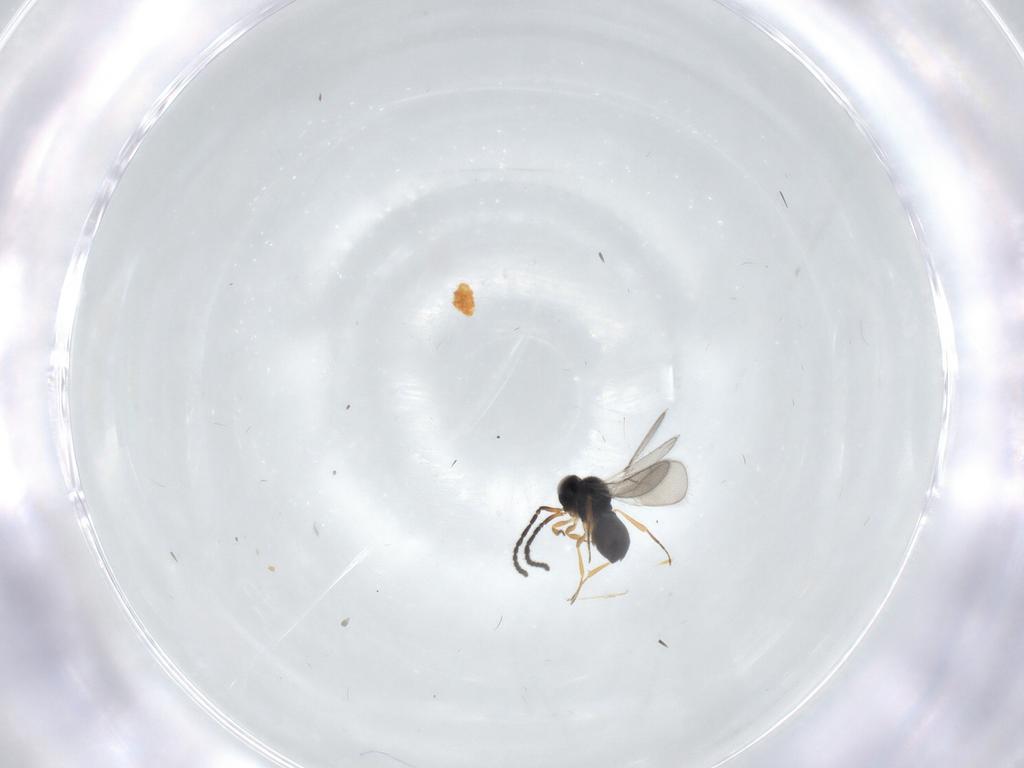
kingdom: Animalia
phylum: Arthropoda
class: Insecta
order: Hymenoptera
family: Scelionidae
